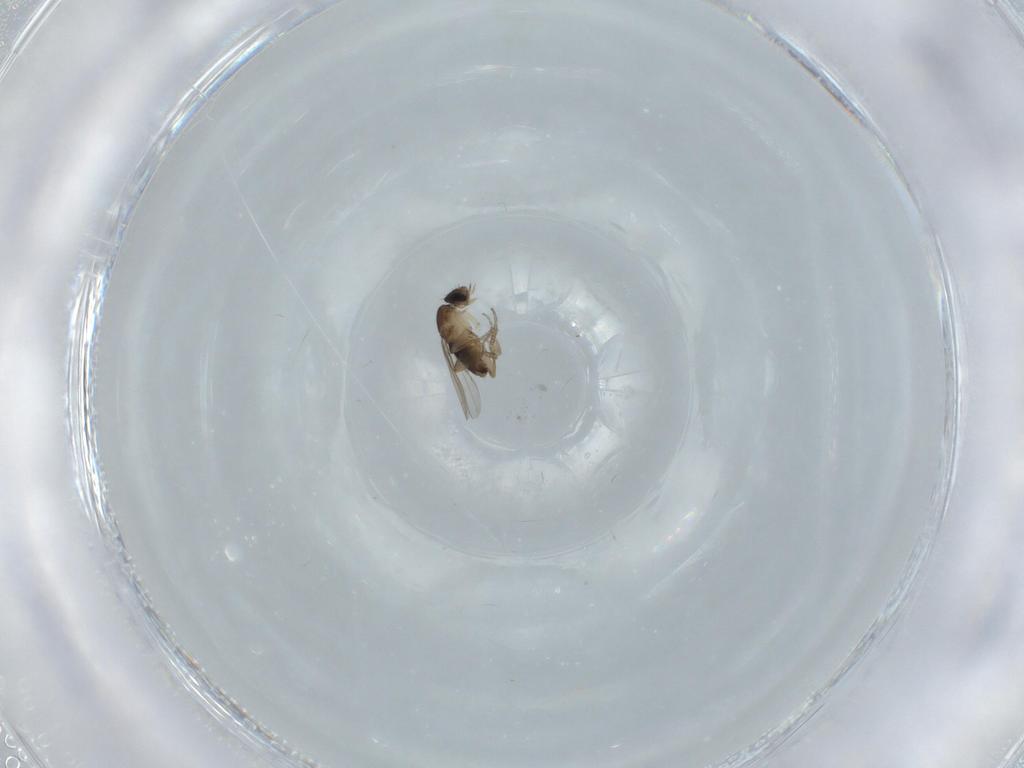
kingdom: Animalia
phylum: Arthropoda
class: Insecta
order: Diptera
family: Phoridae
